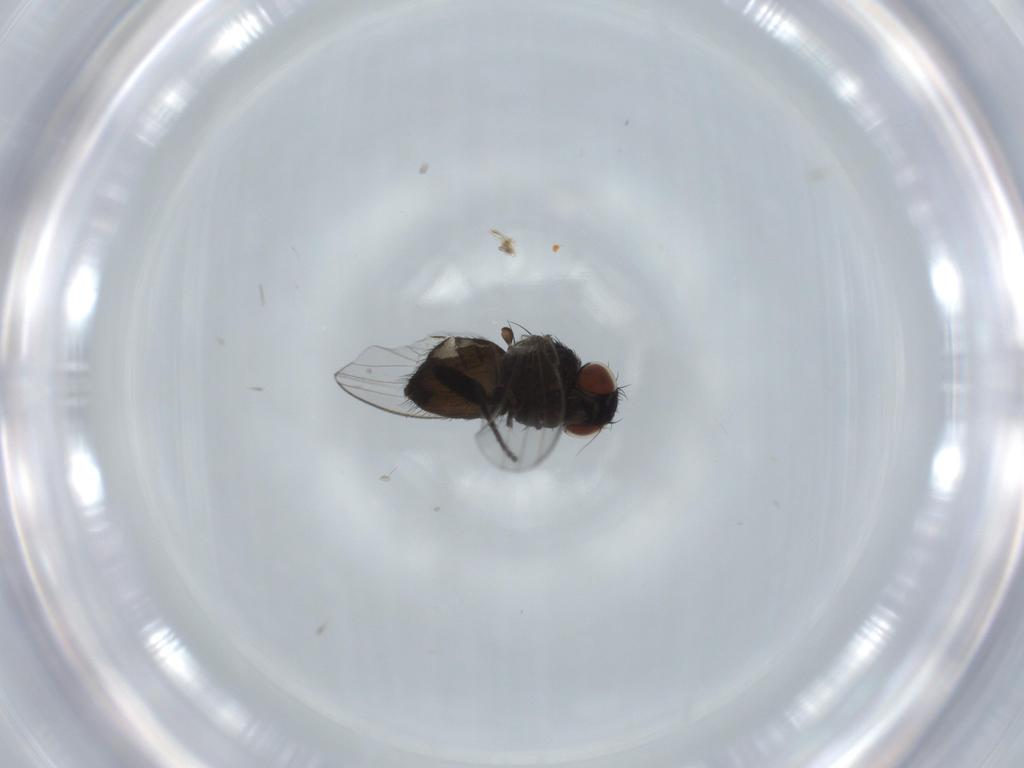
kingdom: Animalia
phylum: Arthropoda
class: Insecta
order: Diptera
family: Milichiidae
